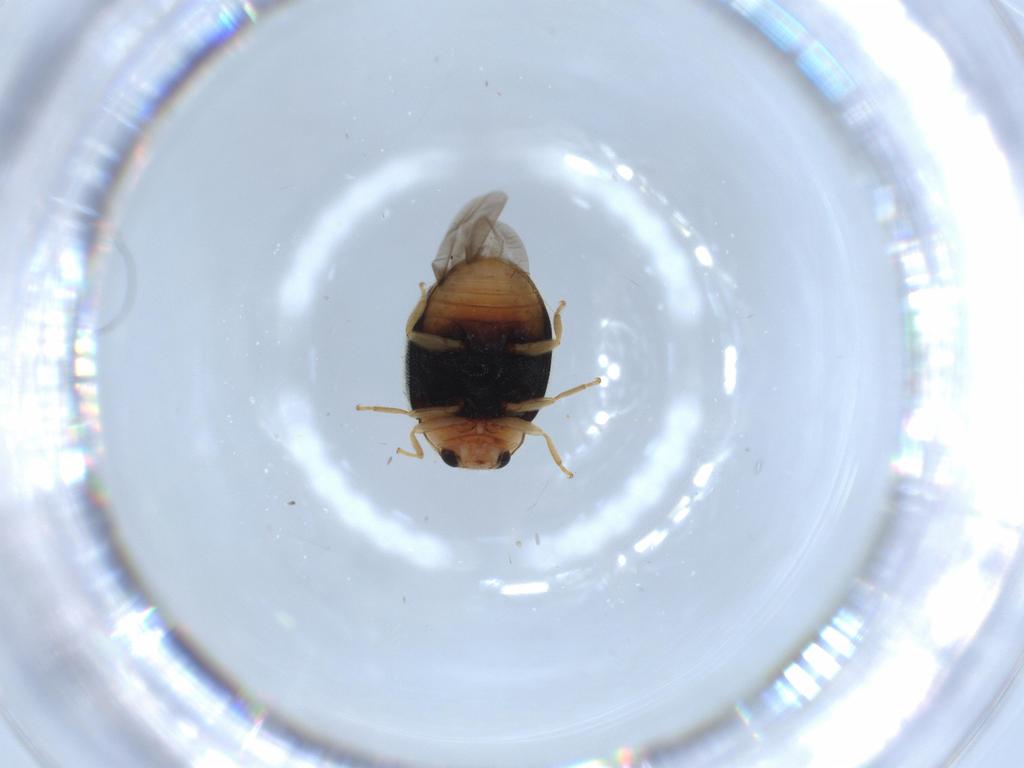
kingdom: Animalia
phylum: Arthropoda
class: Insecta
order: Coleoptera
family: Coccinellidae
